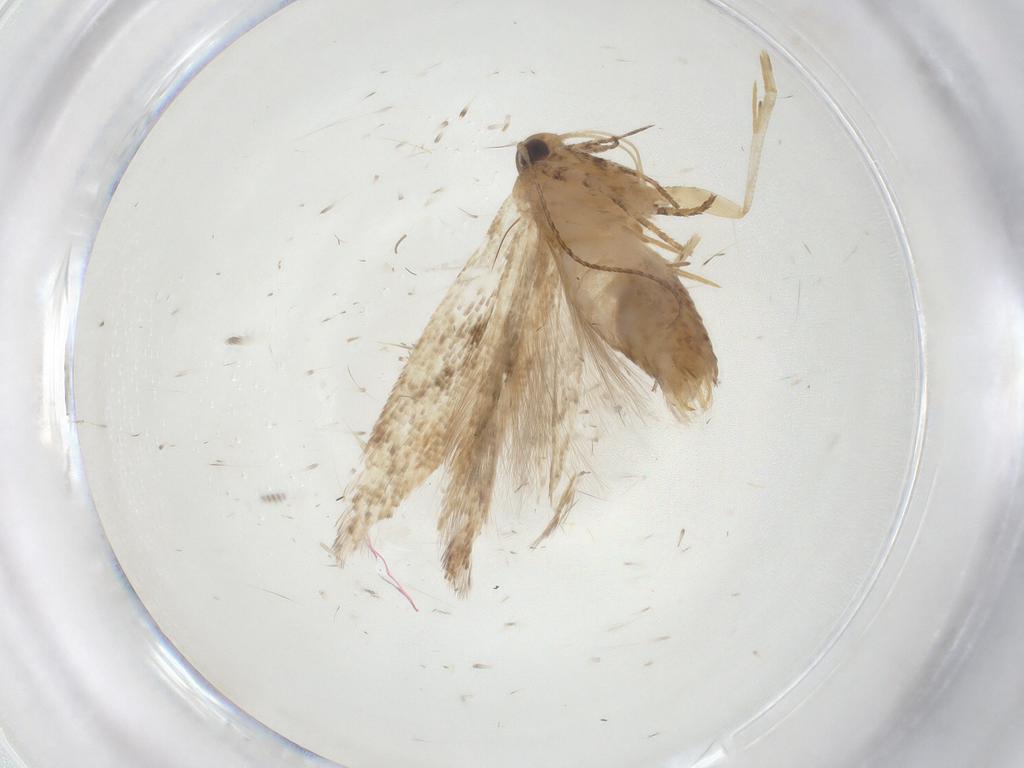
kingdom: Animalia
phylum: Arthropoda
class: Insecta
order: Lepidoptera
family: Gelechiidae
